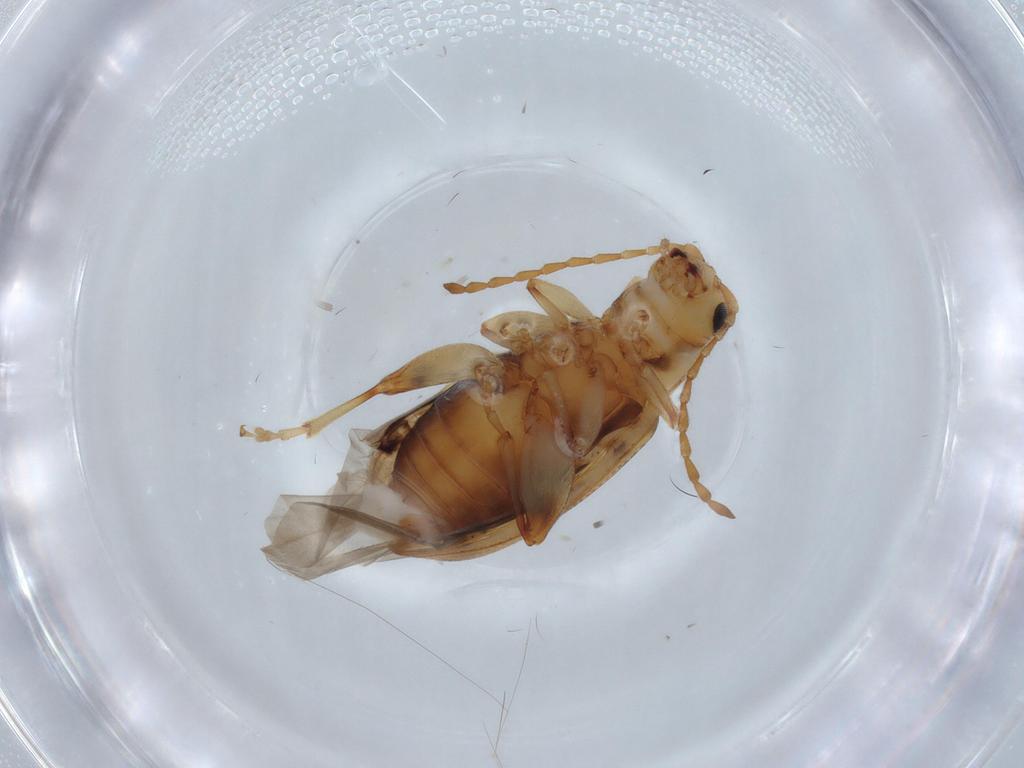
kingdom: Animalia
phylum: Arthropoda
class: Insecta
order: Coleoptera
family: Chrysomelidae
